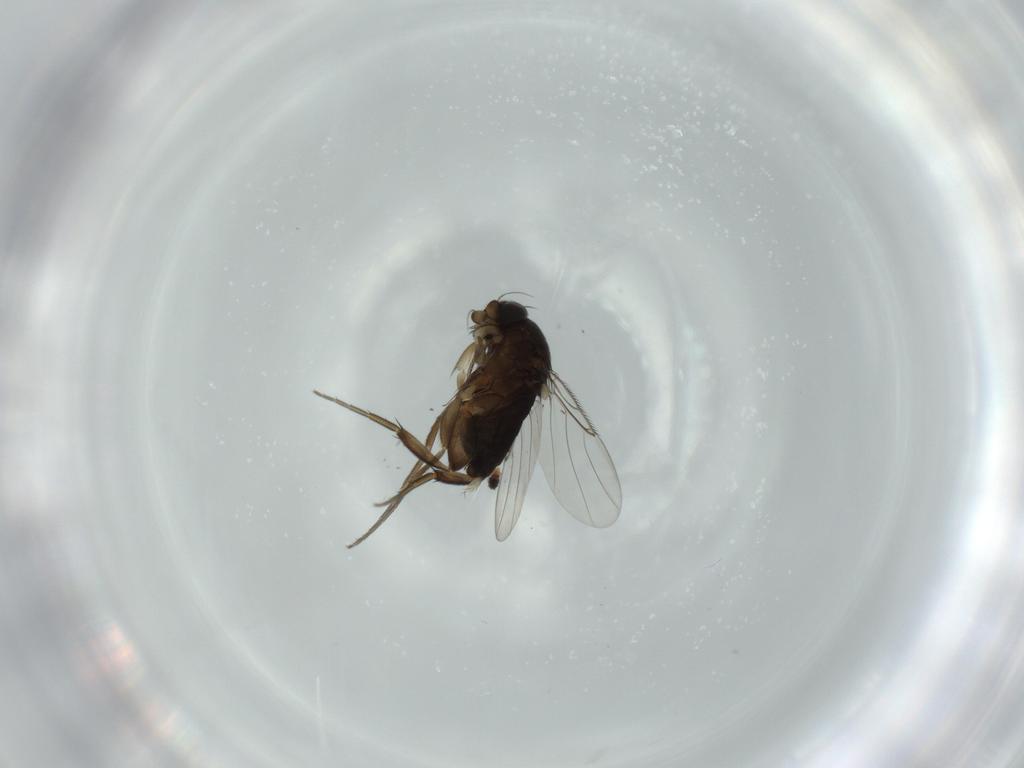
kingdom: Animalia
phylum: Arthropoda
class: Insecta
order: Diptera
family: Phoridae
